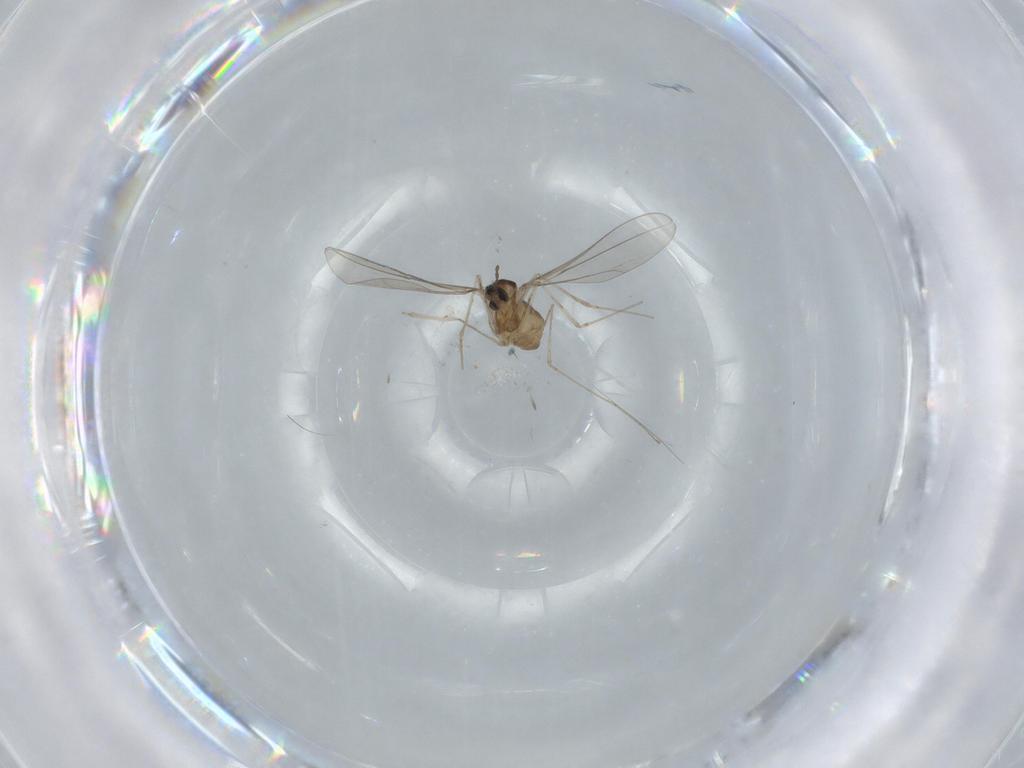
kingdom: Animalia
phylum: Arthropoda
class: Insecta
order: Diptera
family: Cecidomyiidae
